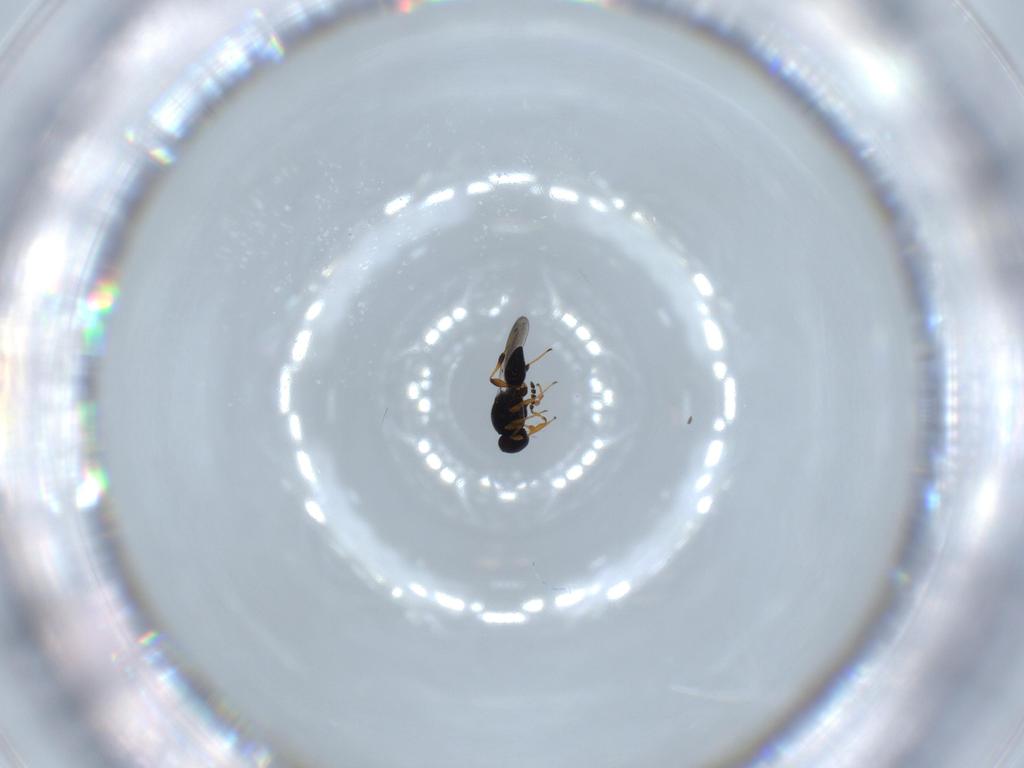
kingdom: Animalia
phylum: Arthropoda
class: Insecta
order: Hymenoptera
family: Platygastridae
